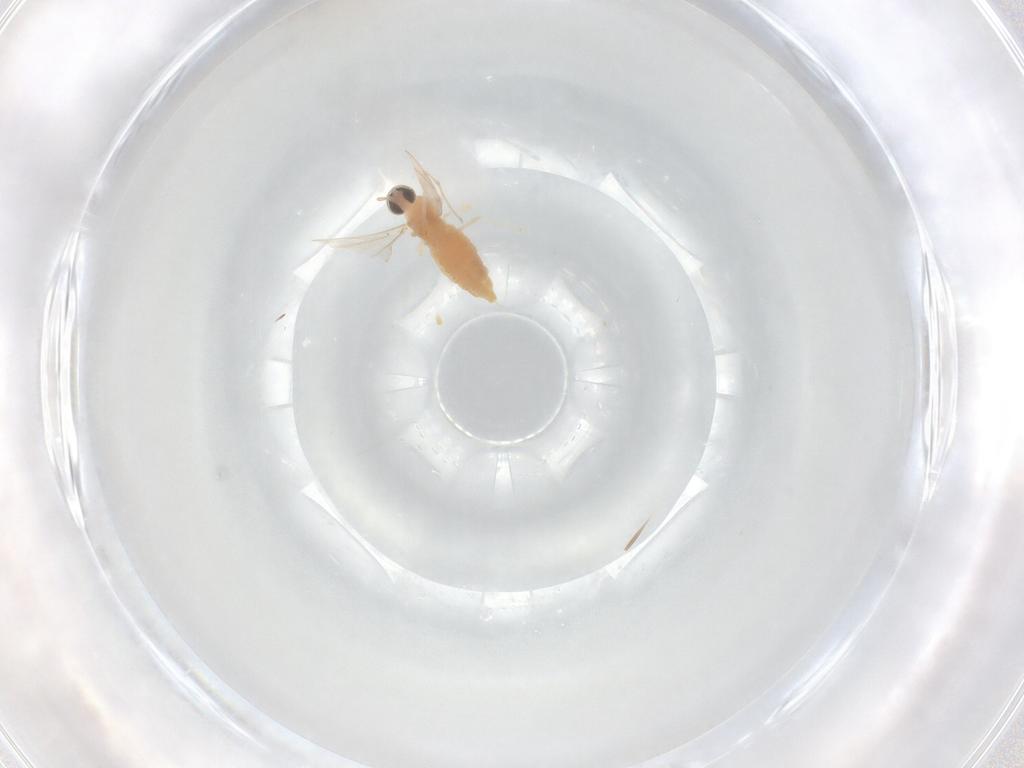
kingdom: Animalia
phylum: Arthropoda
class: Insecta
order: Diptera
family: Cecidomyiidae
